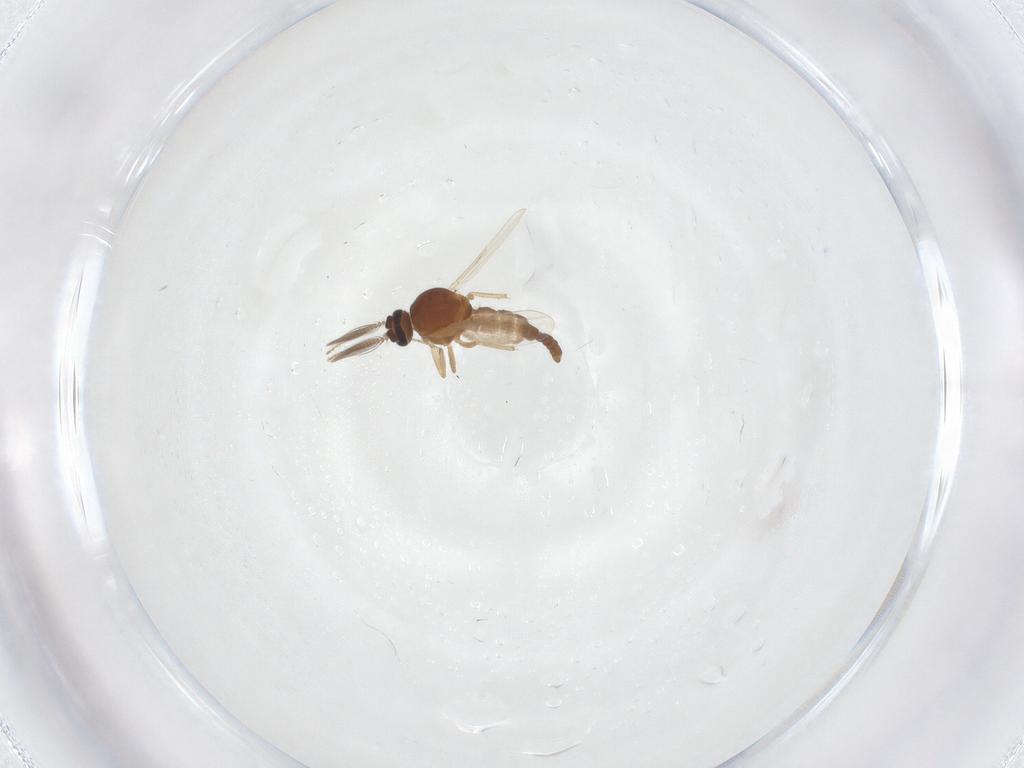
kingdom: Animalia
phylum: Arthropoda
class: Insecta
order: Diptera
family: Ceratopogonidae
